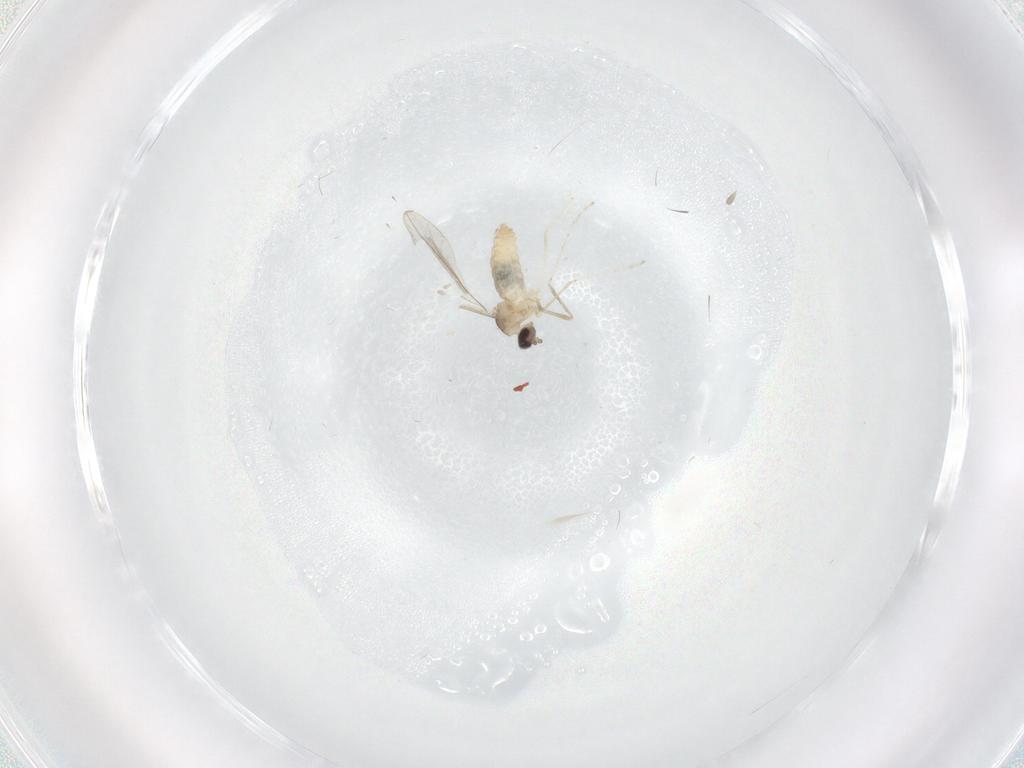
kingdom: Animalia
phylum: Arthropoda
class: Insecta
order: Diptera
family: Cecidomyiidae
